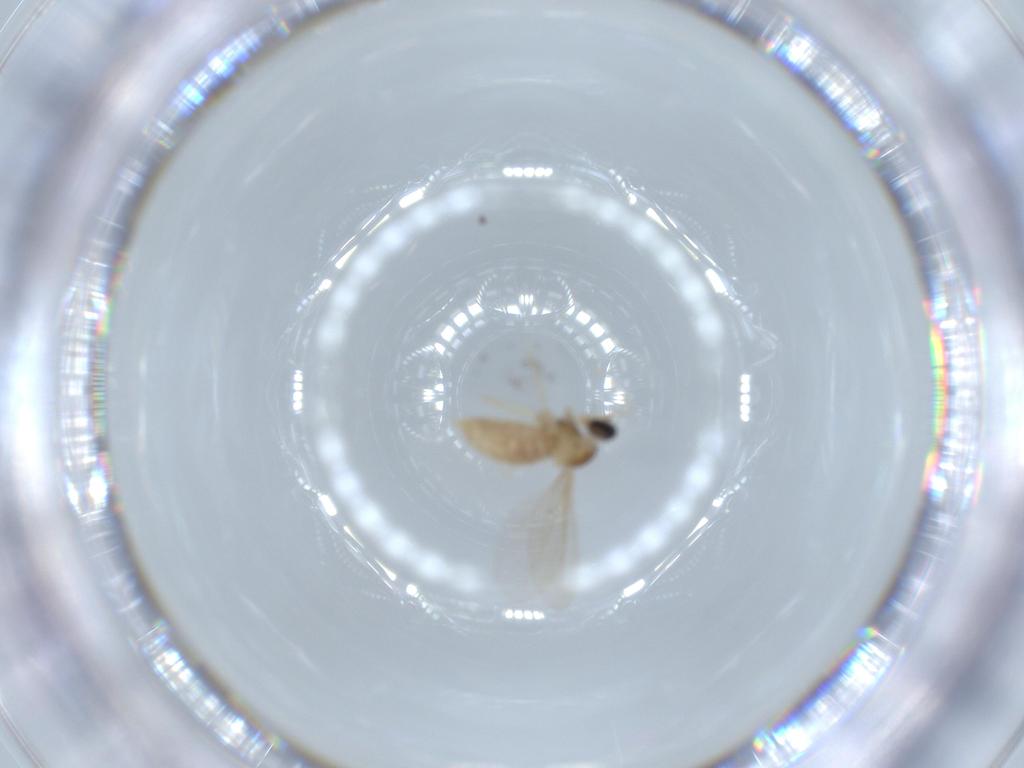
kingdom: Animalia
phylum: Arthropoda
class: Insecta
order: Diptera
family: Cecidomyiidae
